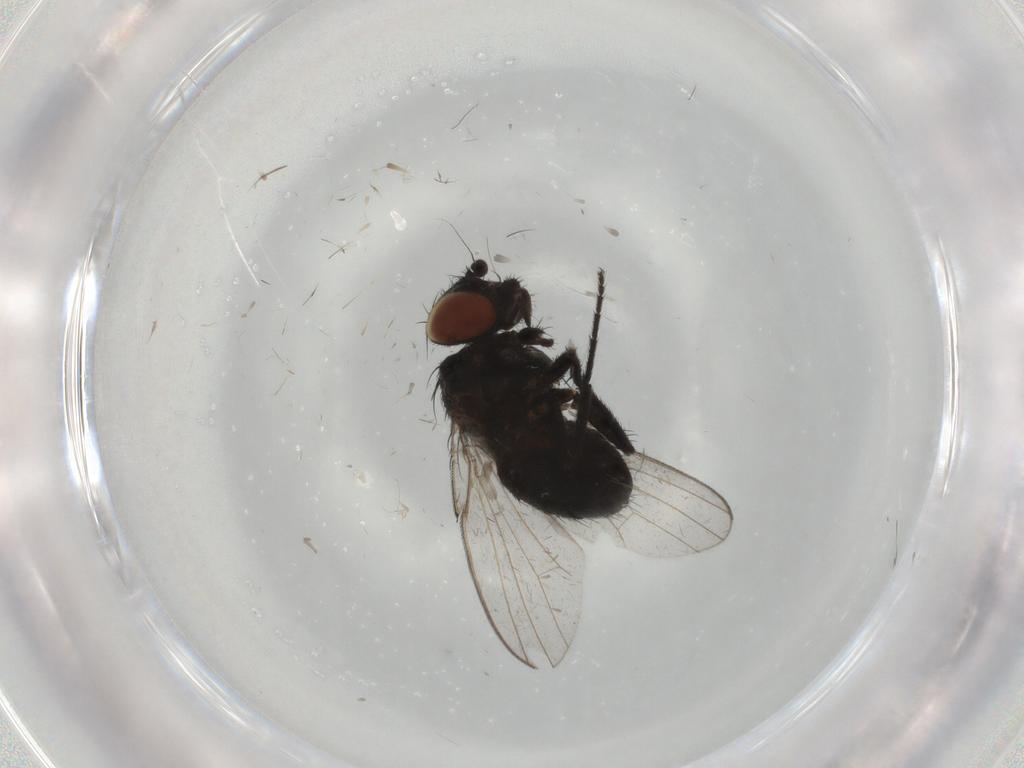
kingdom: Animalia
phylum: Arthropoda
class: Insecta
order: Diptera
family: Milichiidae
